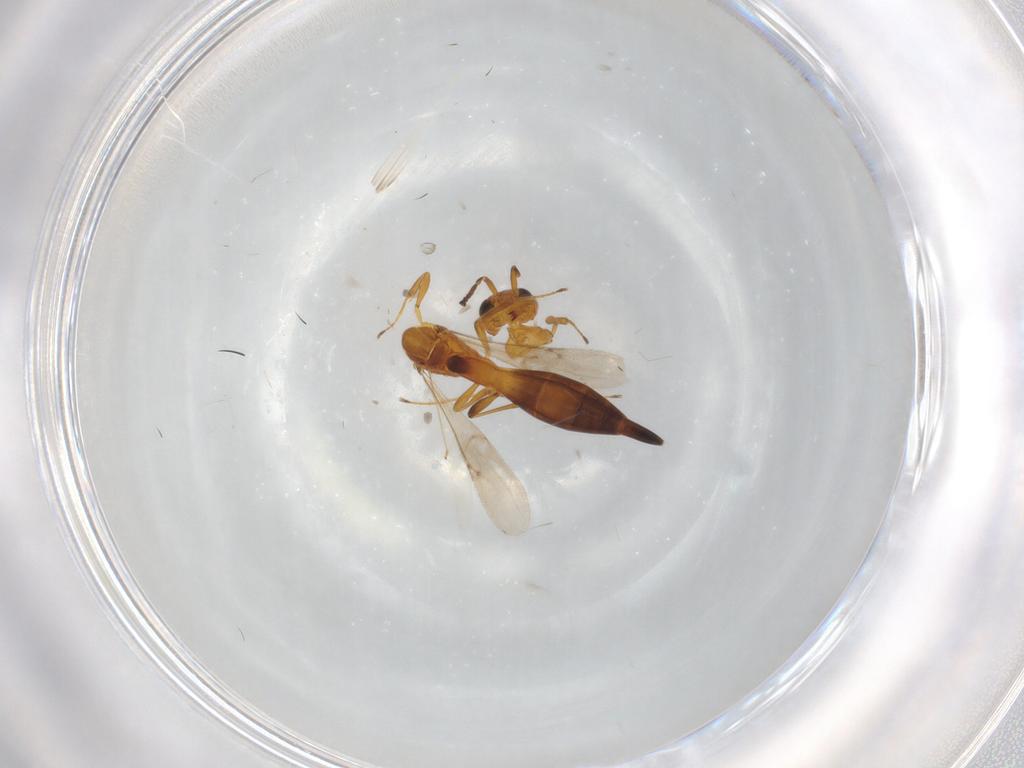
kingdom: Animalia
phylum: Arthropoda
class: Insecta
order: Hymenoptera
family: Scelionidae
